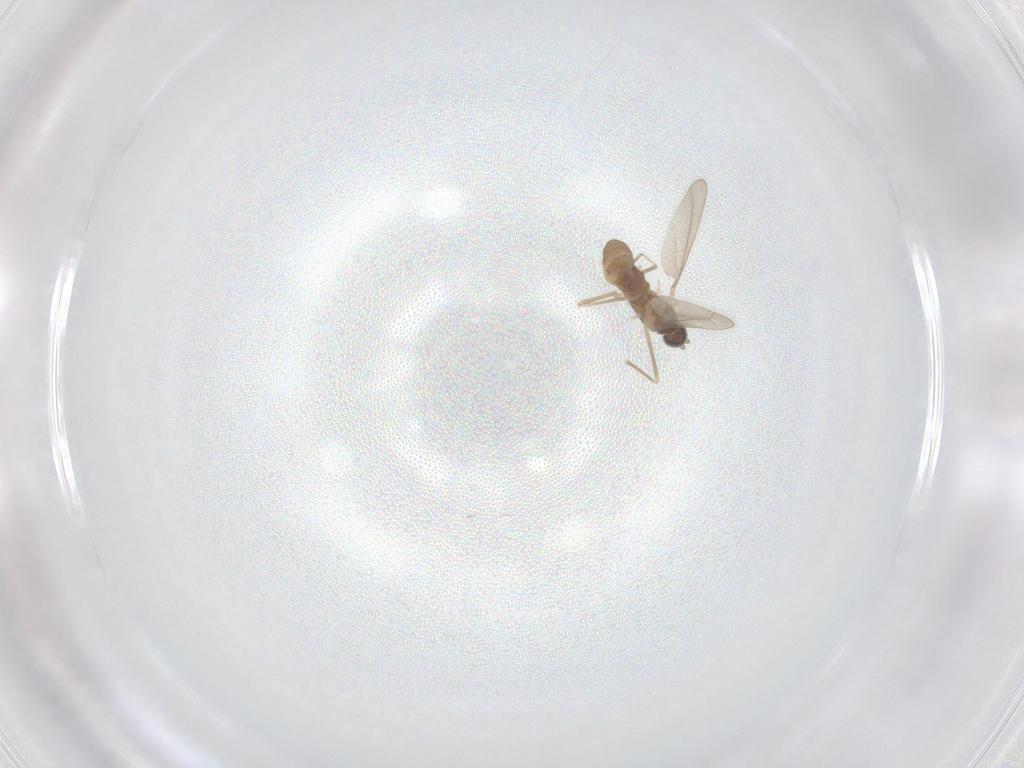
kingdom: Animalia
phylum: Arthropoda
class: Insecta
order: Diptera
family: Cecidomyiidae
